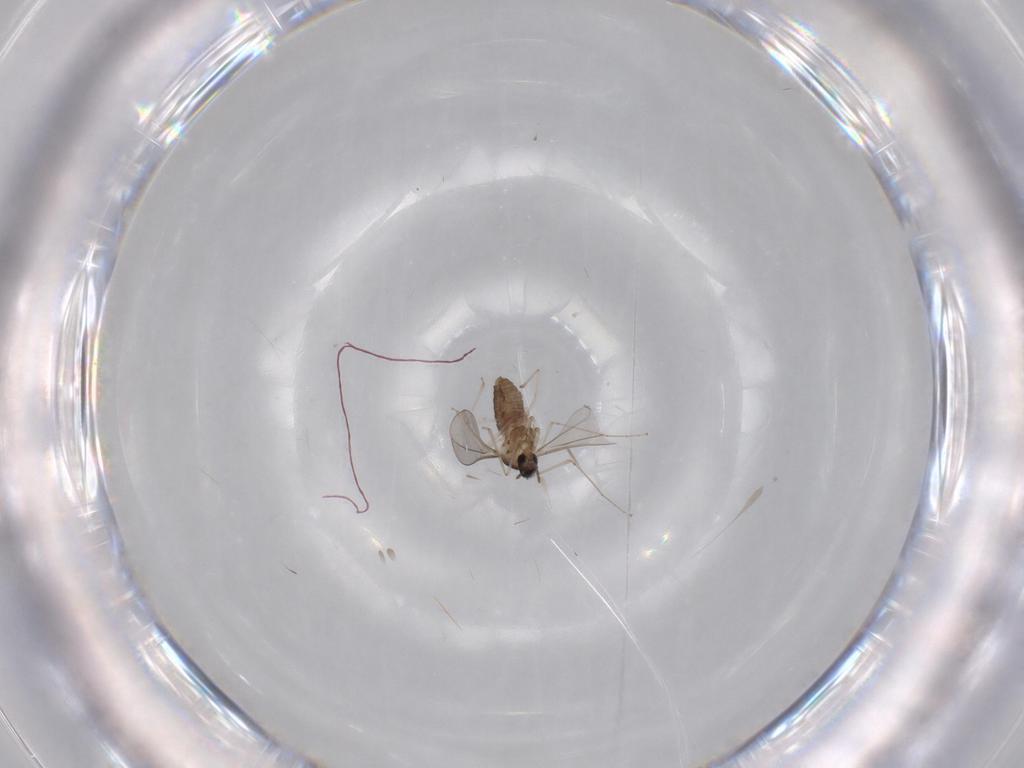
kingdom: Animalia
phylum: Arthropoda
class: Insecta
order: Diptera
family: Cecidomyiidae
